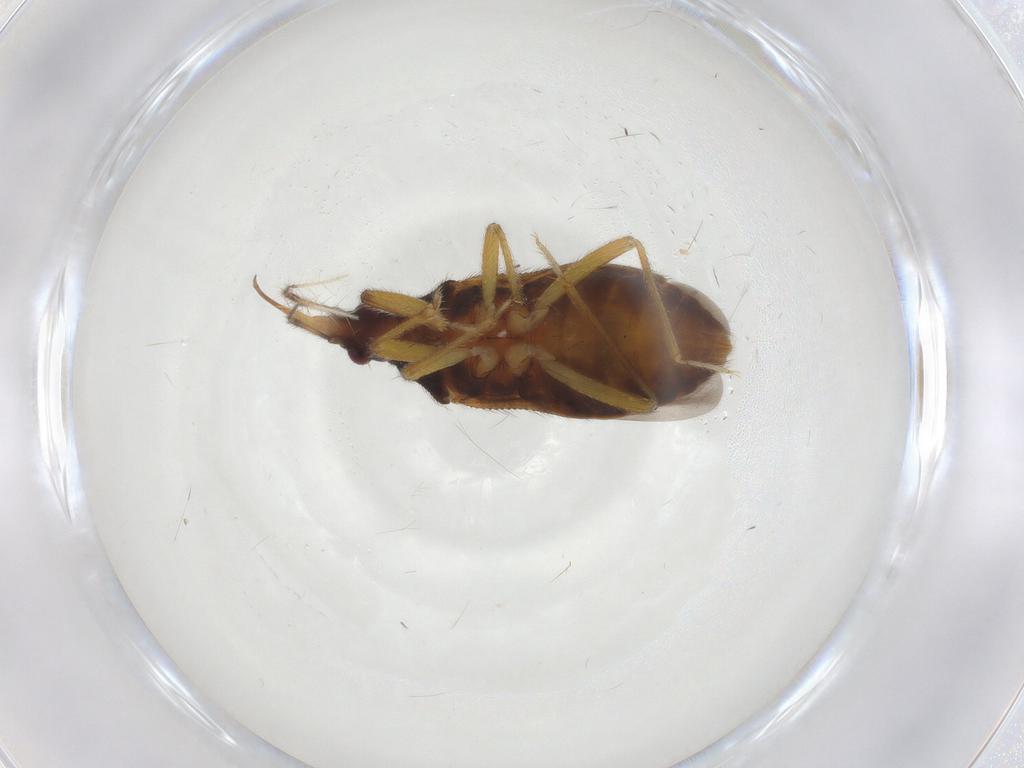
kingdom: Animalia
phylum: Arthropoda
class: Insecta
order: Hemiptera
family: Anthocoridae
